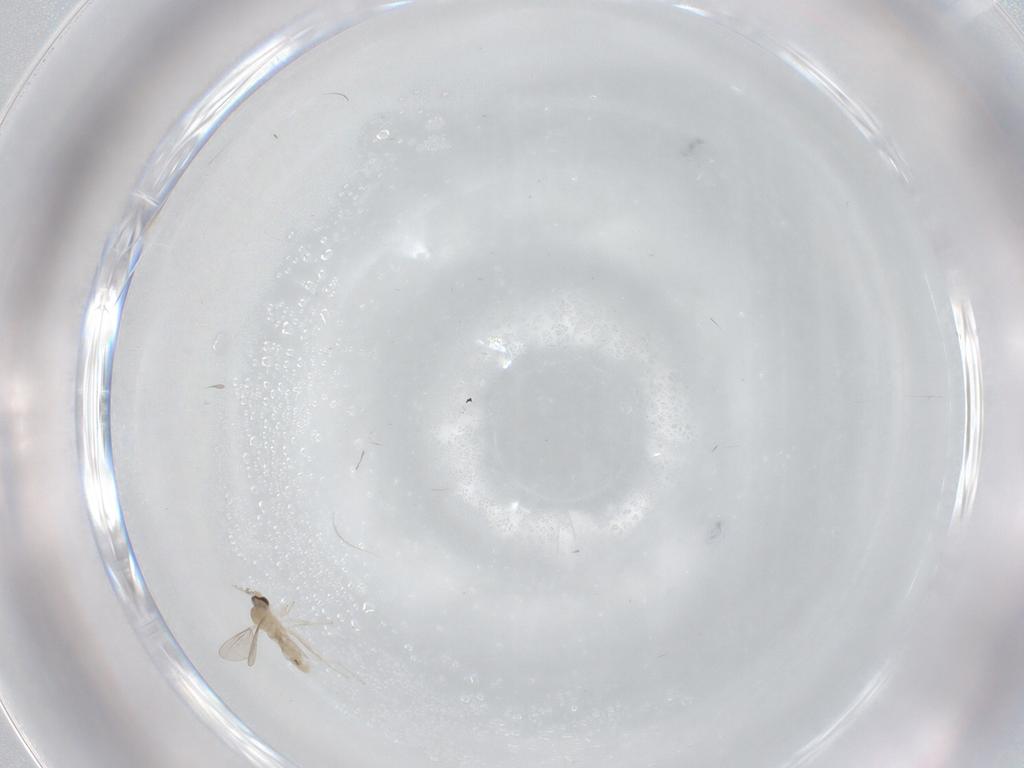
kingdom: Animalia
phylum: Arthropoda
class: Insecta
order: Diptera
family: Cecidomyiidae
